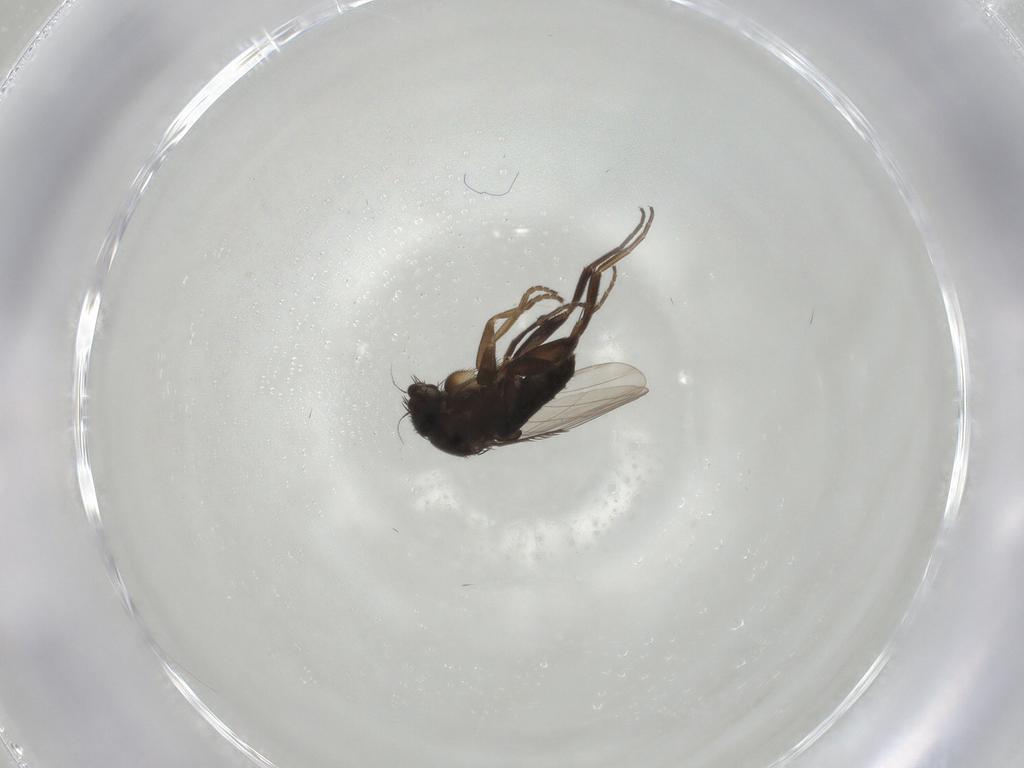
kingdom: Animalia
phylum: Arthropoda
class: Insecta
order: Diptera
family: Phoridae
